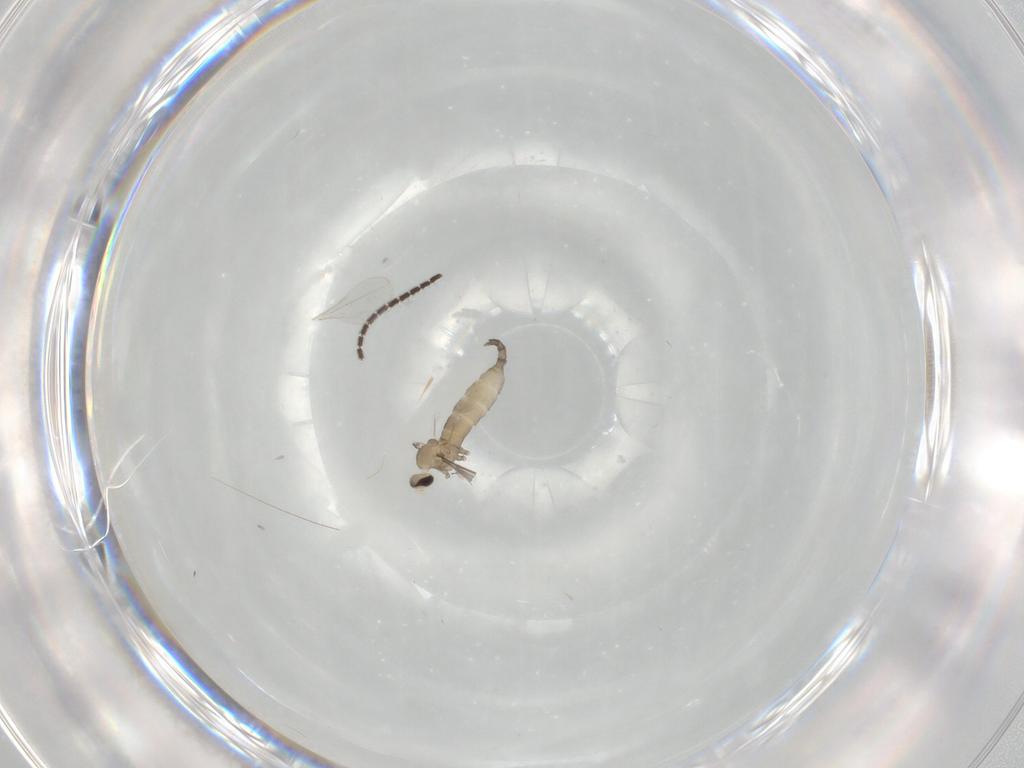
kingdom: Animalia
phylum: Arthropoda
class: Insecta
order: Diptera
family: Cecidomyiidae
